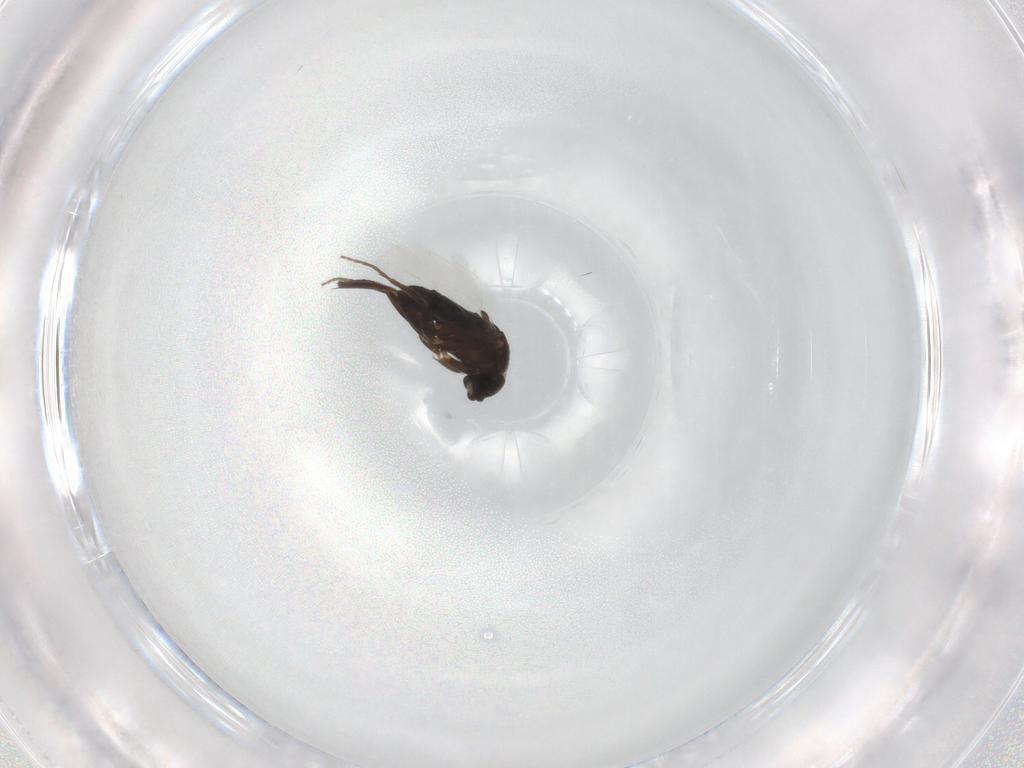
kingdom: Animalia
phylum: Arthropoda
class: Insecta
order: Diptera
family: Phoridae
